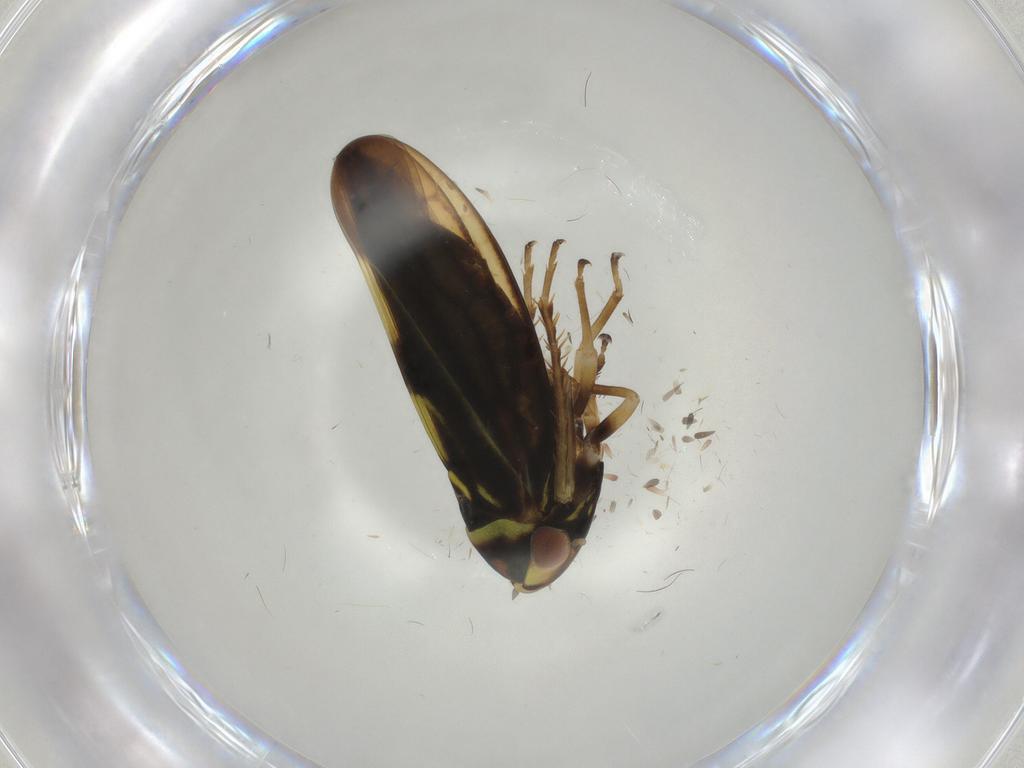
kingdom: Animalia
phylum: Arthropoda
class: Insecta
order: Hemiptera
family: Cicadellidae
